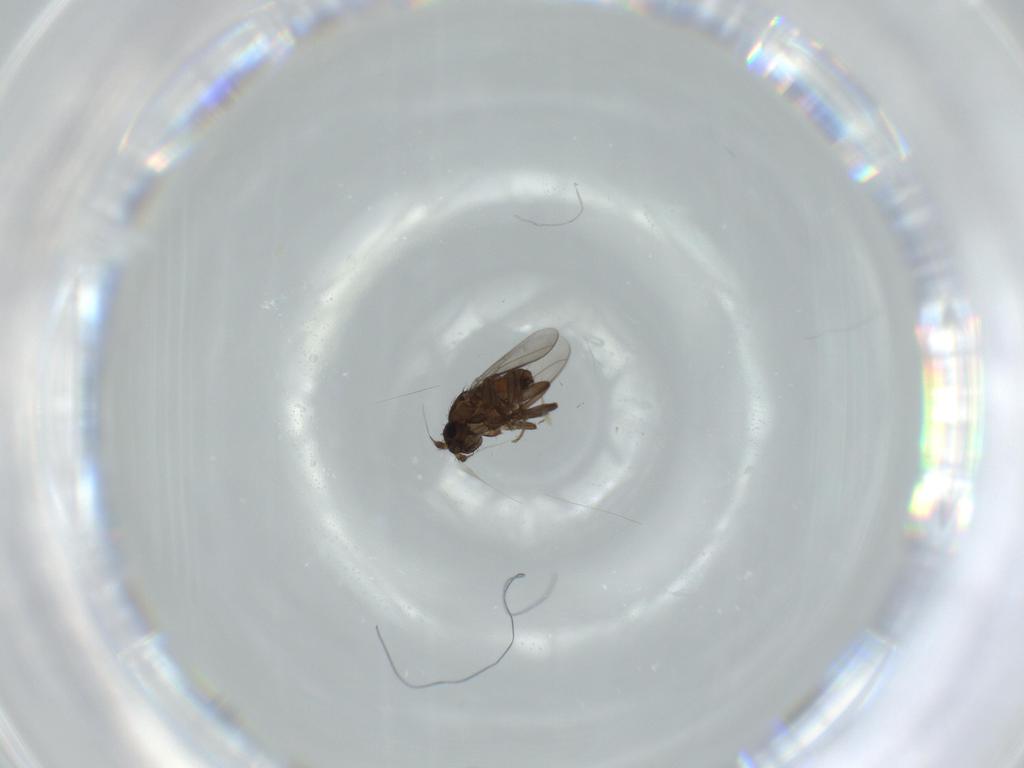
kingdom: Animalia
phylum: Arthropoda
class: Insecta
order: Diptera
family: Sphaeroceridae
